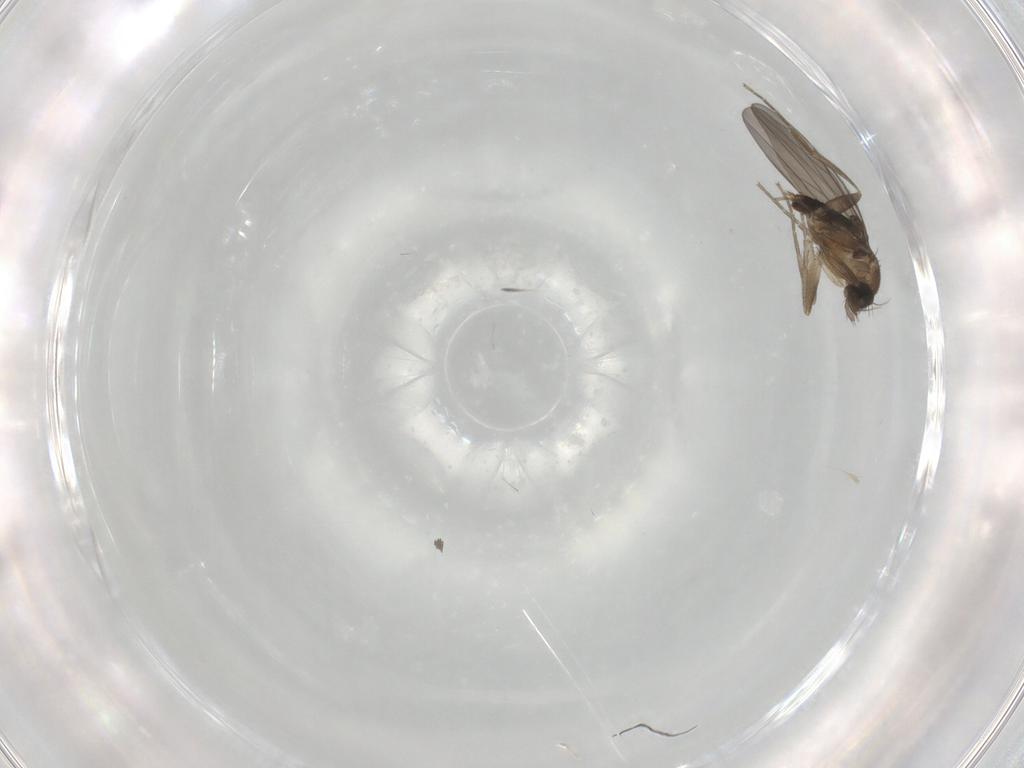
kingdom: Animalia
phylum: Arthropoda
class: Insecta
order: Diptera
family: Phoridae
